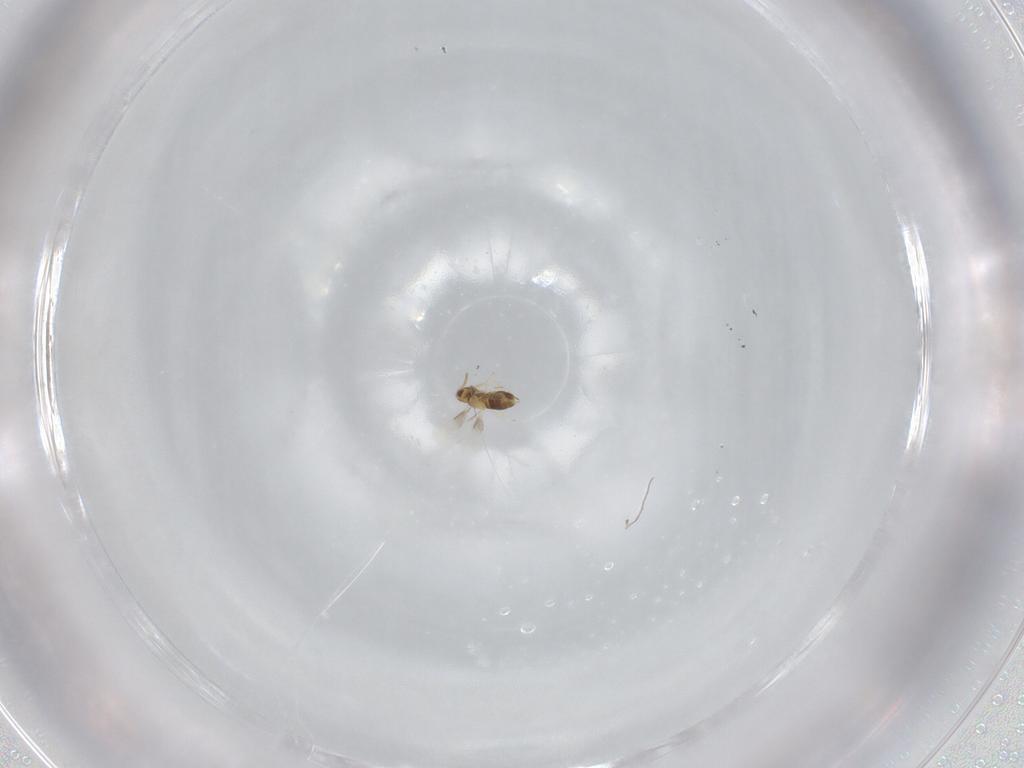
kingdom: Animalia
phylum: Arthropoda
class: Insecta
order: Hymenoptera
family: Aphelinidae
